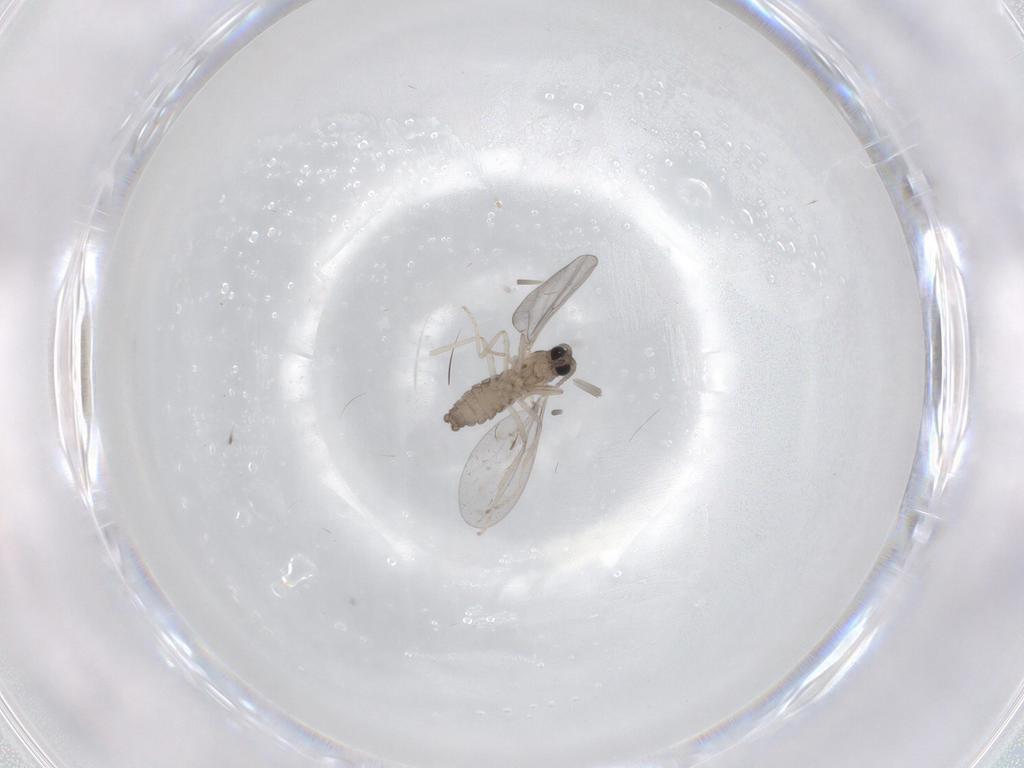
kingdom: Animalia
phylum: Arthropoda
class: Insecta
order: Diptera
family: Cecidomyiidae
